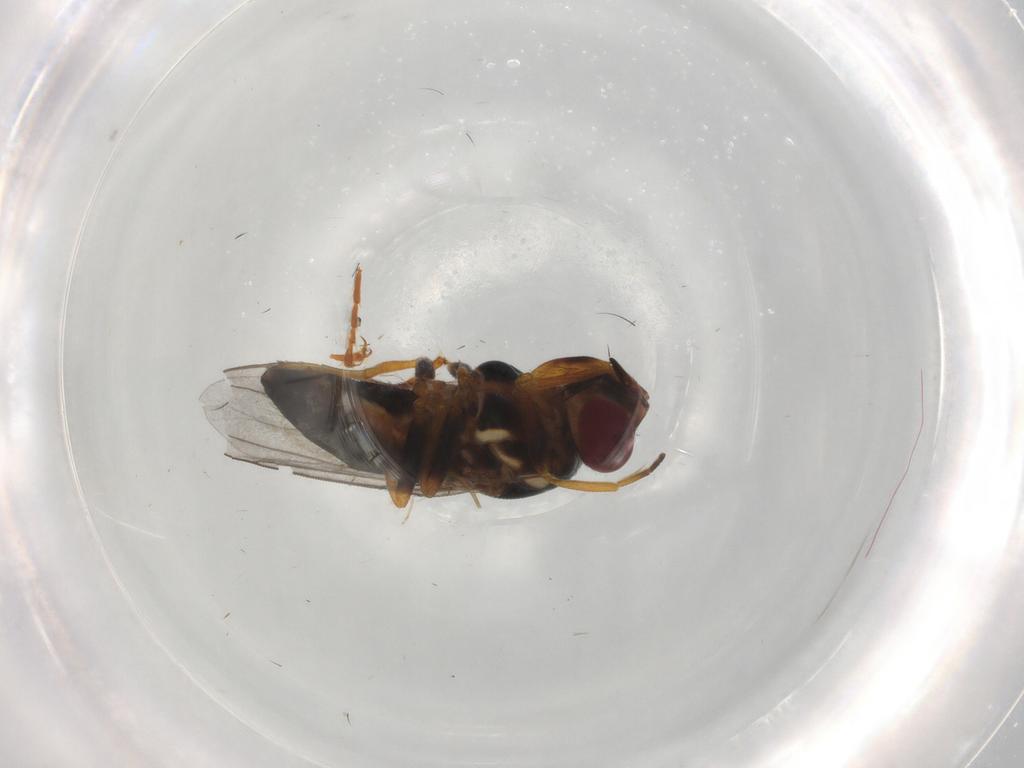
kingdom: Animalia
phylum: Arthropoda
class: Insecta
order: Diptera
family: Chloropidae
